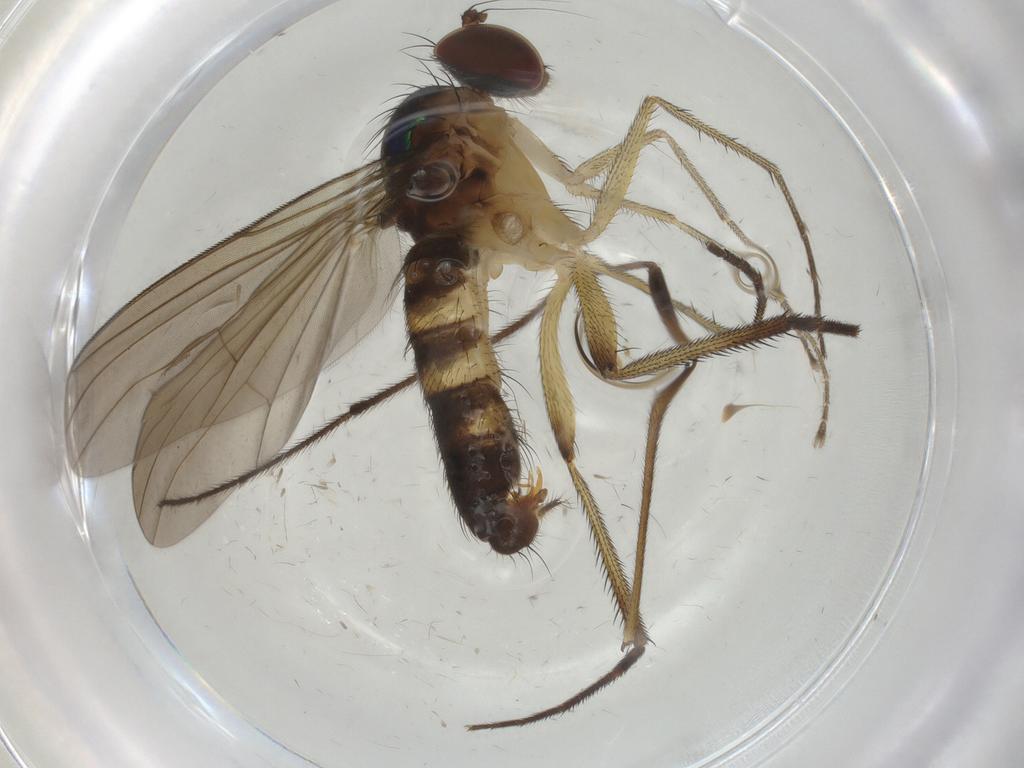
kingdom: Animalia
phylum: Arthropoda
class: Insecta
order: Diptera
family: Dolichopodidae
